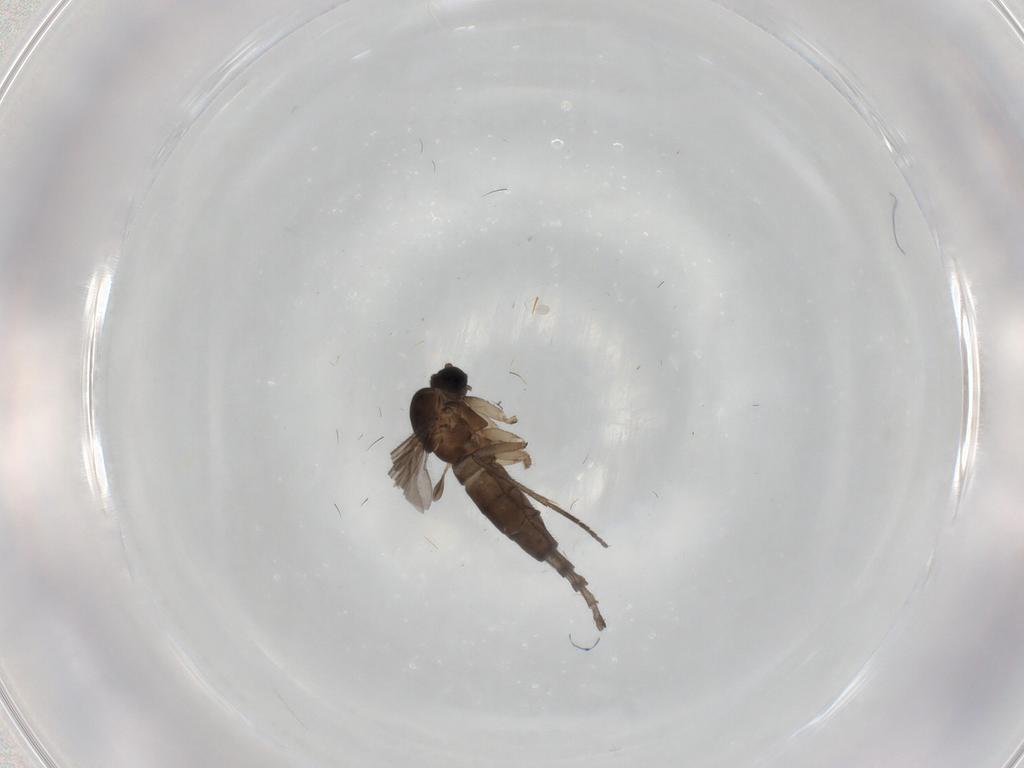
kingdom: Animalia
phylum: Arthropoda
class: Insecta
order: Diptera
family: Sciaridae
